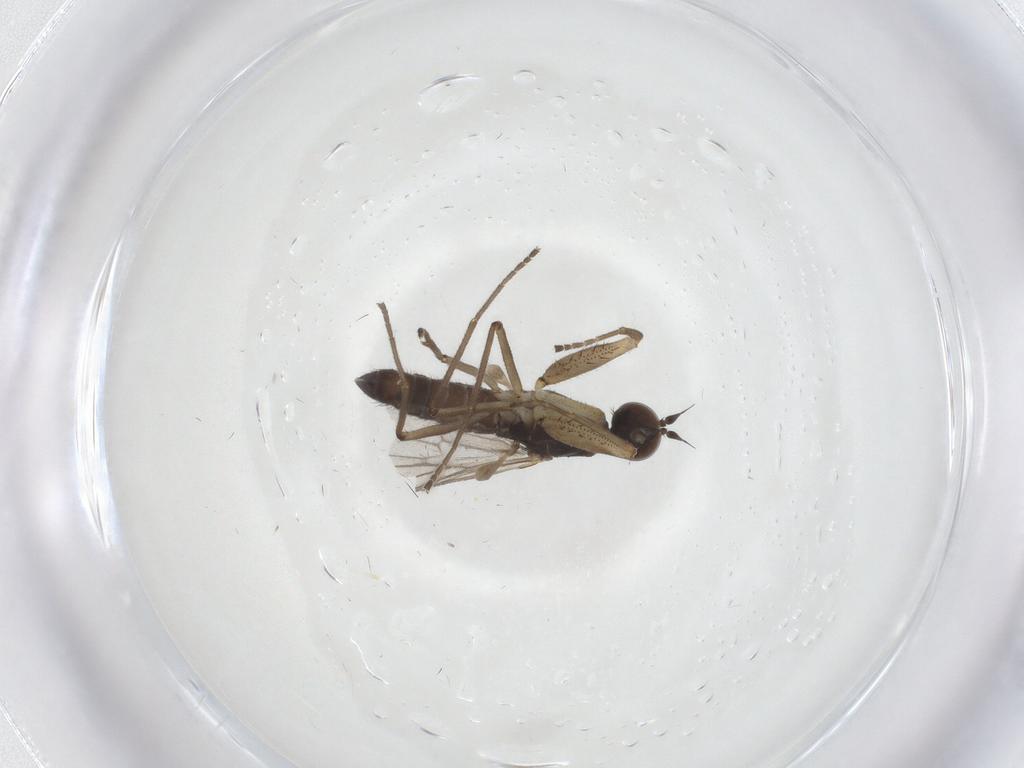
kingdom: Animalia
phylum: Arthropoda
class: Insecta
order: Diptera
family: Empididae
